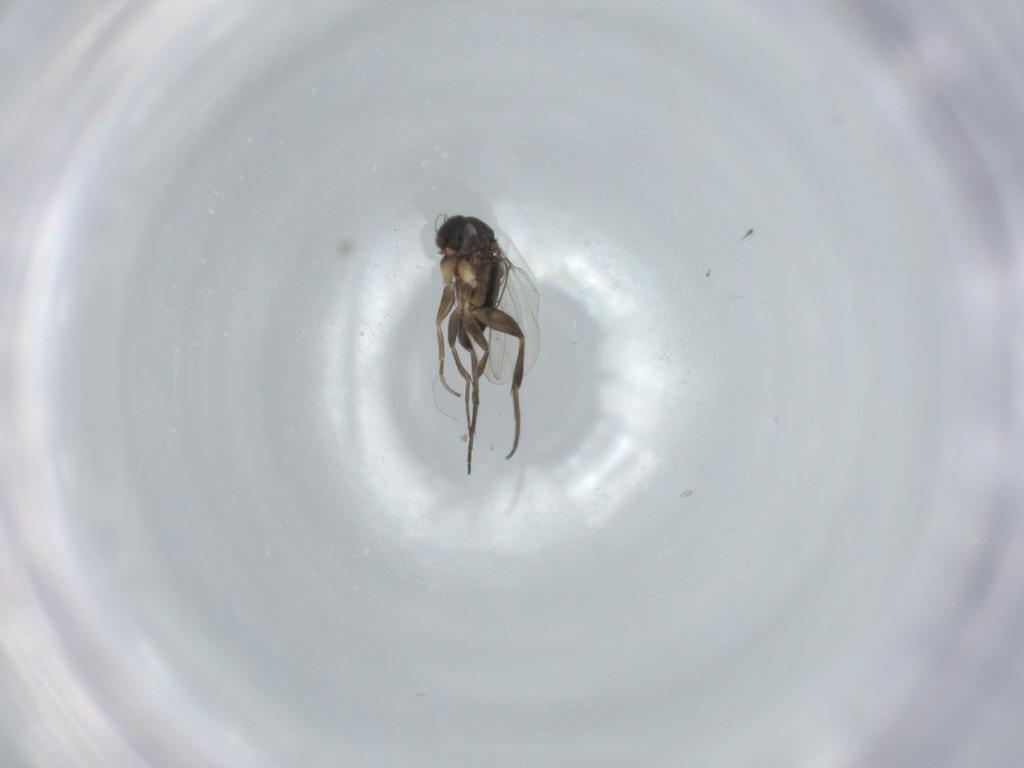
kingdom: Animalia
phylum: Arthropoda
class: Insecta
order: Diptera
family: Phoridae
